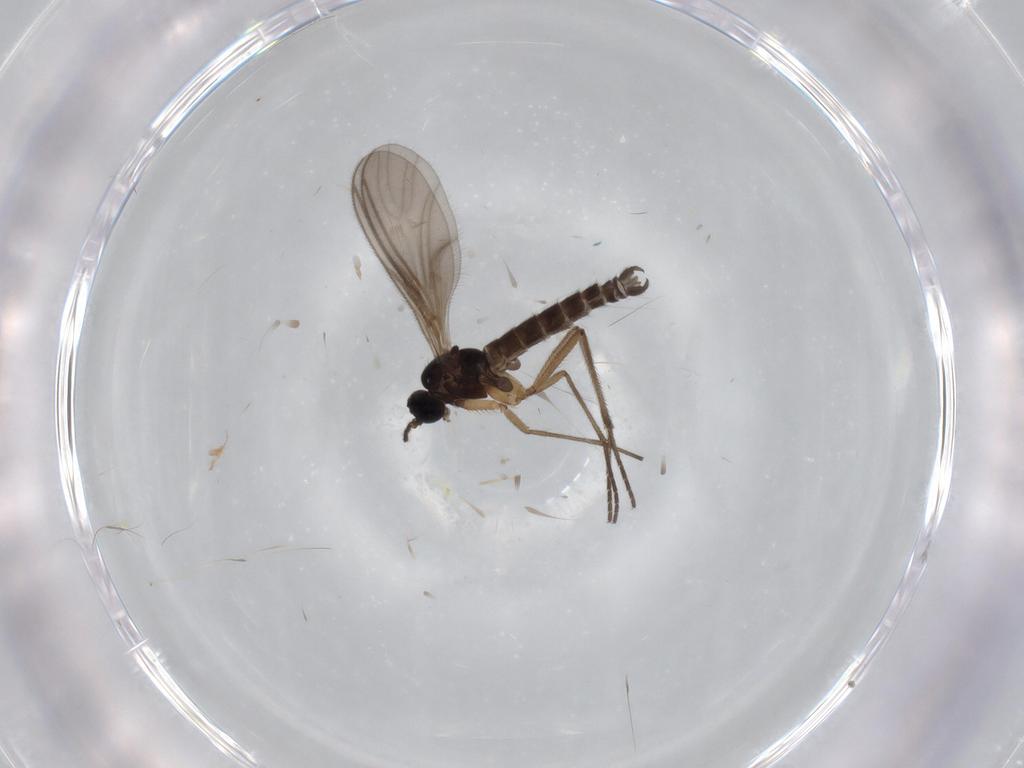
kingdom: Animalia
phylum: Arthropoda
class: Insecta
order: Diptera
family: Sciaridae
